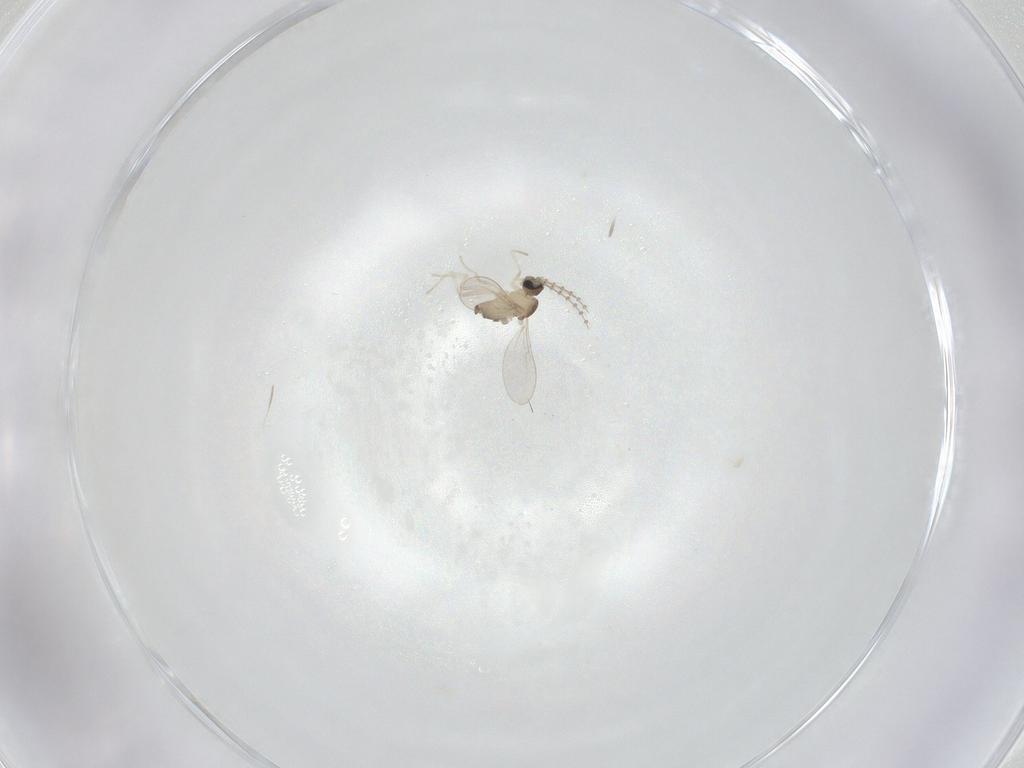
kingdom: Animalia
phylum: Arthropoda
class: Insecta
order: Diptera
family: Cecidomyiidae
